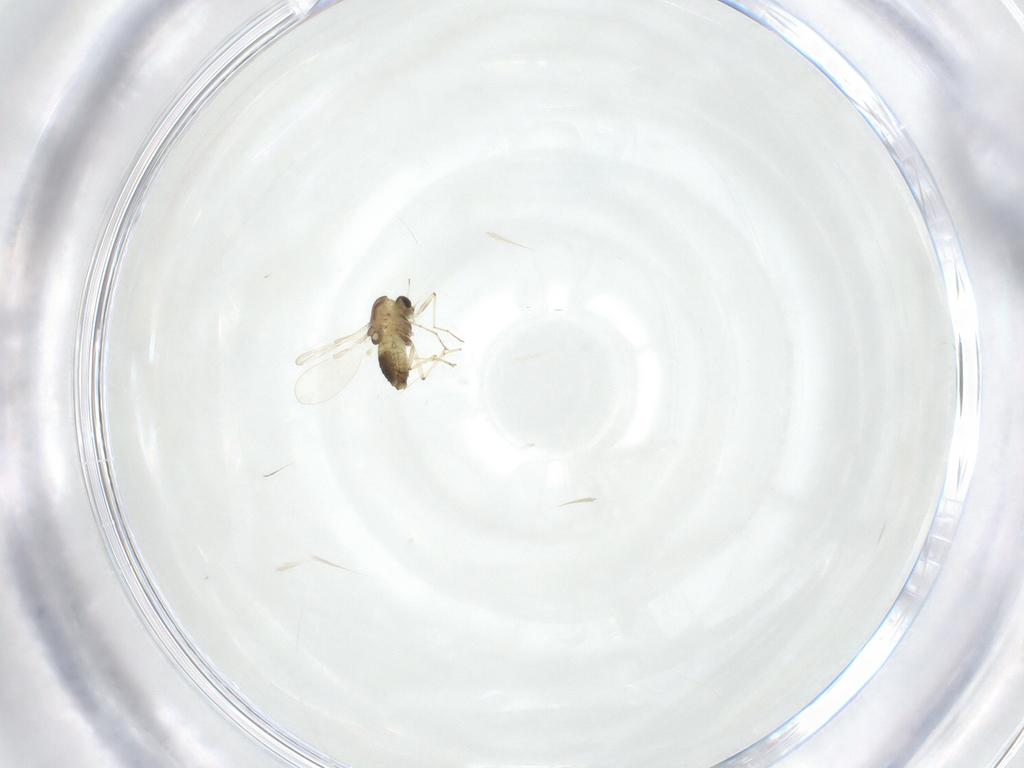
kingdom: Animalia
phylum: Arthropoda
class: Insecta
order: Diptera
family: Chironomidae
